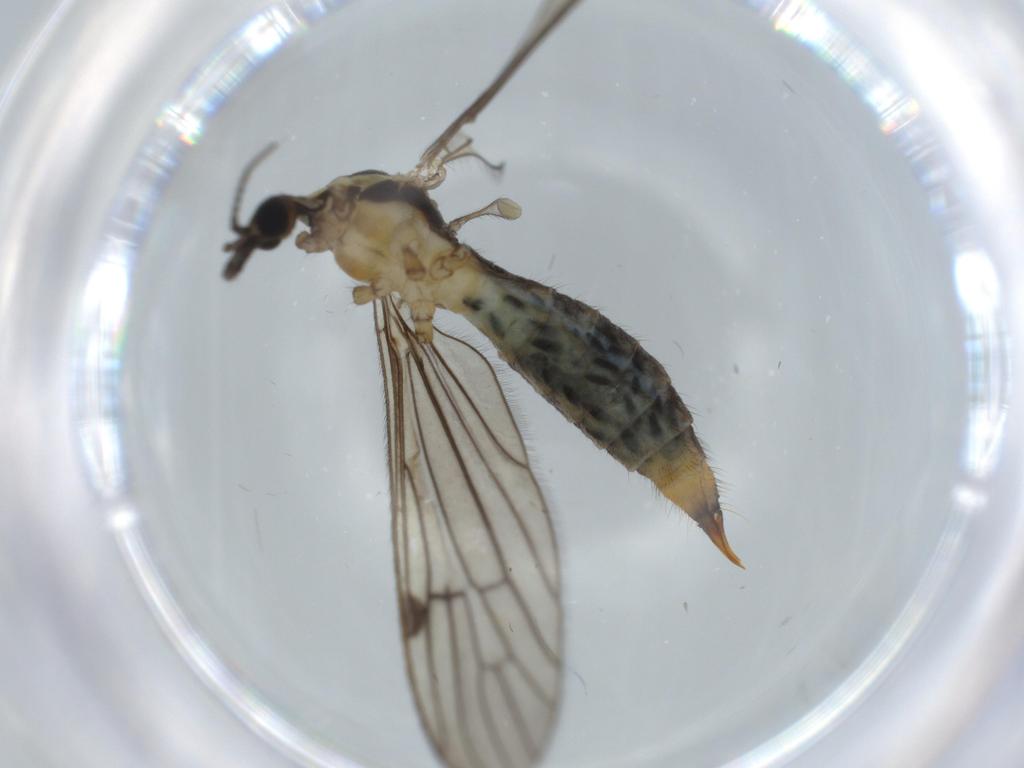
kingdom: Animalia
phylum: Arthropoda
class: Insecta
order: Diptera
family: Limoniidae
